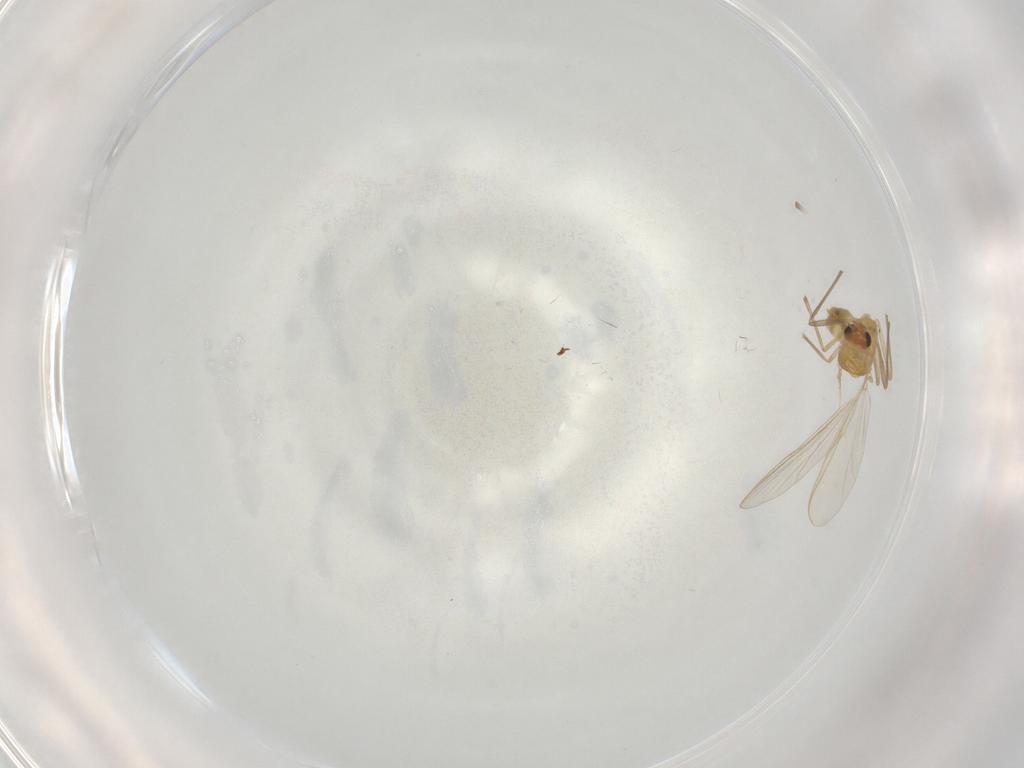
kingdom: Animalia
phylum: Arthropoda
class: Insecta
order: Diptera
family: Chironomidae
